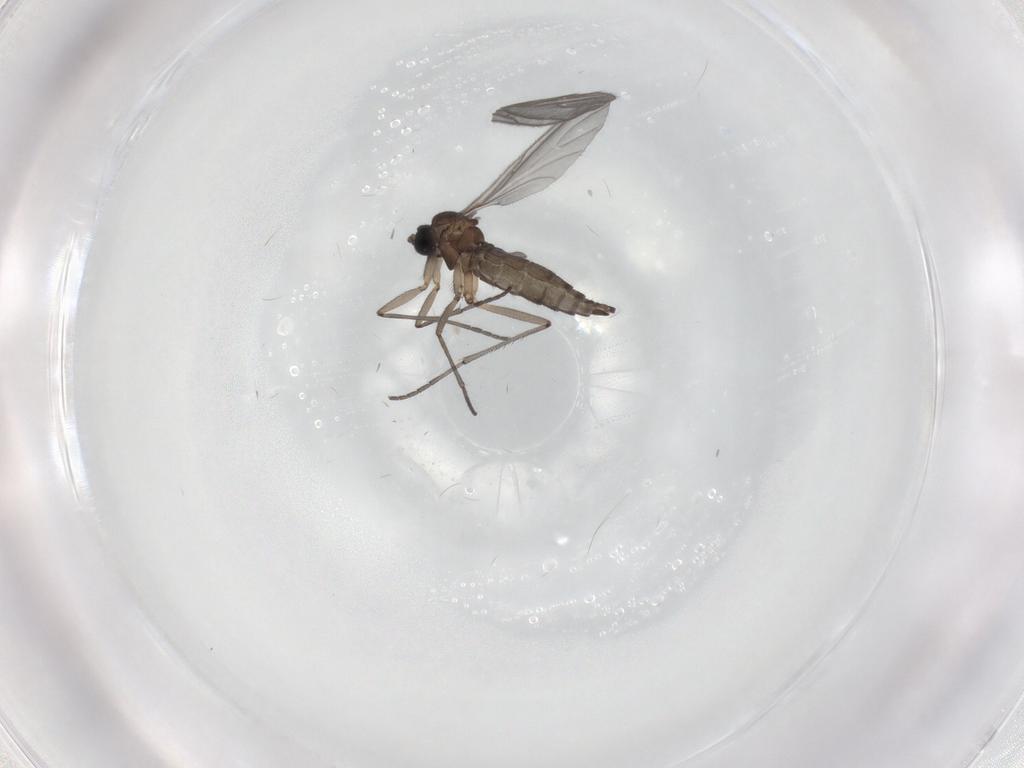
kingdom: Animalia
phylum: Arthropoda
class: Insecta
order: Diptera
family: Sciaridae
